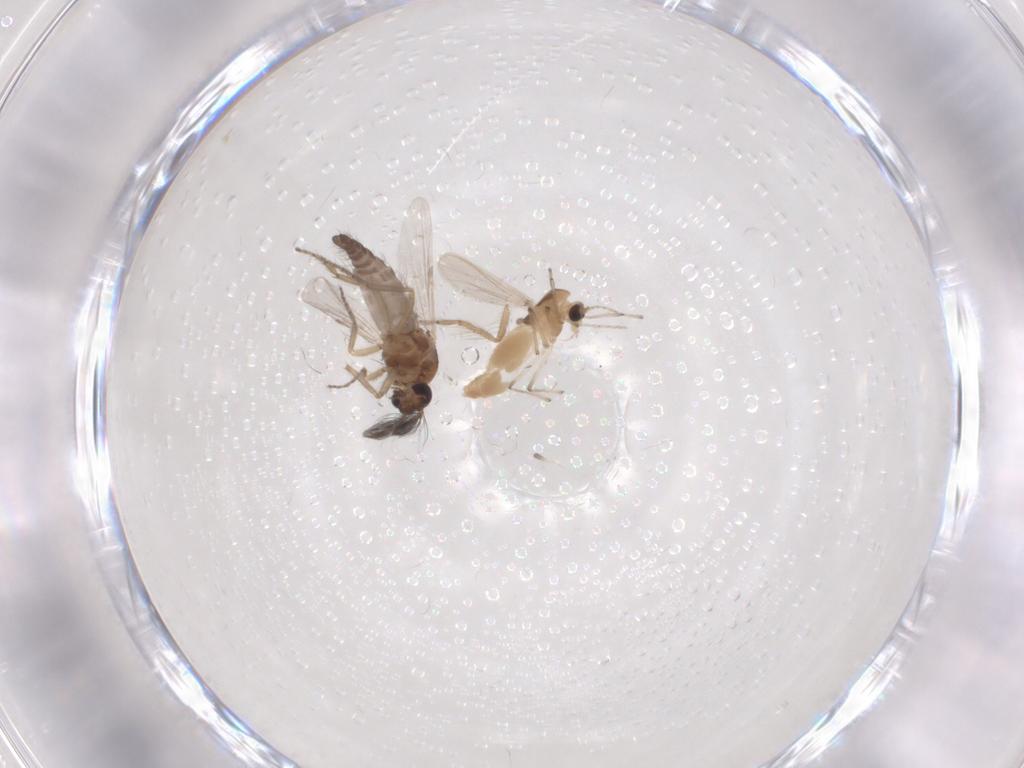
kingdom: Animalia
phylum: Arthropoda
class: Insecta
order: Diptera
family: Ceratopogonidae
